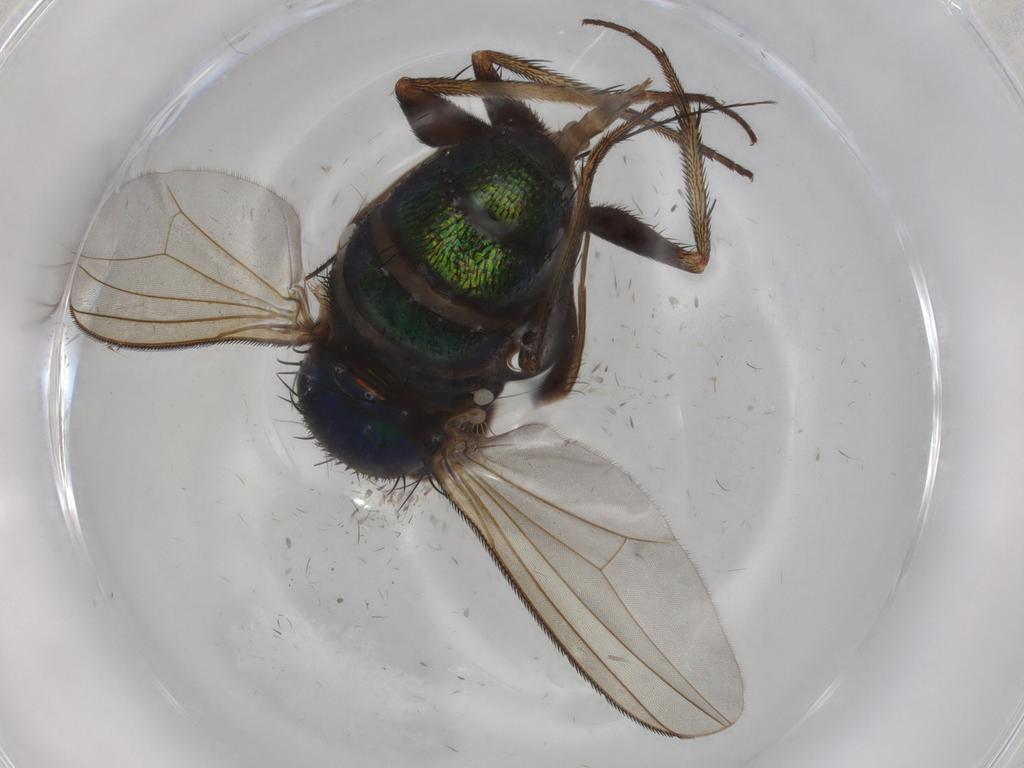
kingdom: Animalia
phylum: Arthropoda
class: Insecta
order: Diptera
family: Dolichopodidae
